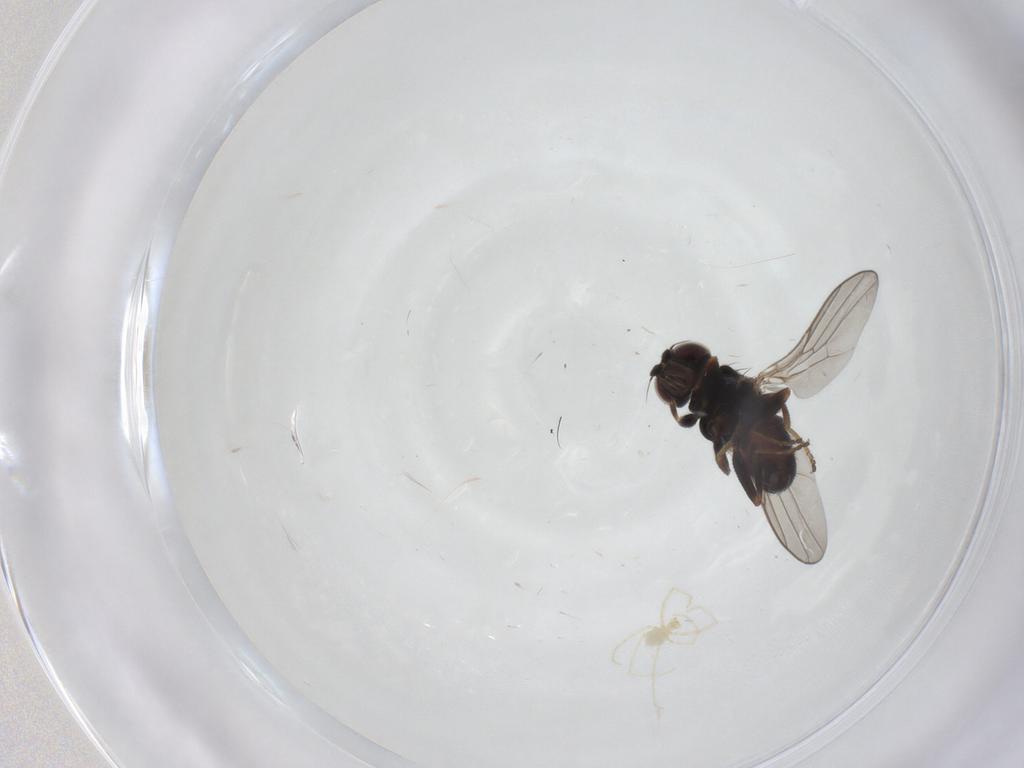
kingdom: Animalia
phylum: Arthropoda
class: Insecta
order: Diptera
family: Chloropidae
